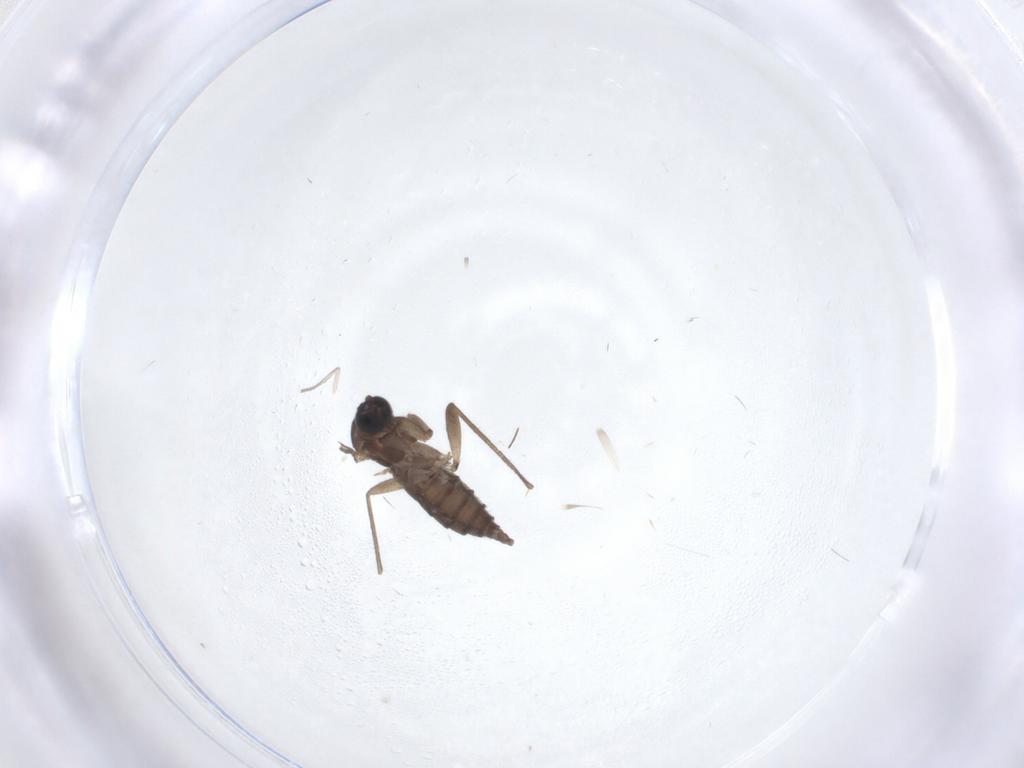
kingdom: Animalia
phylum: Arthropoda
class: Insecta
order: Diptera
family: Sciaridae
